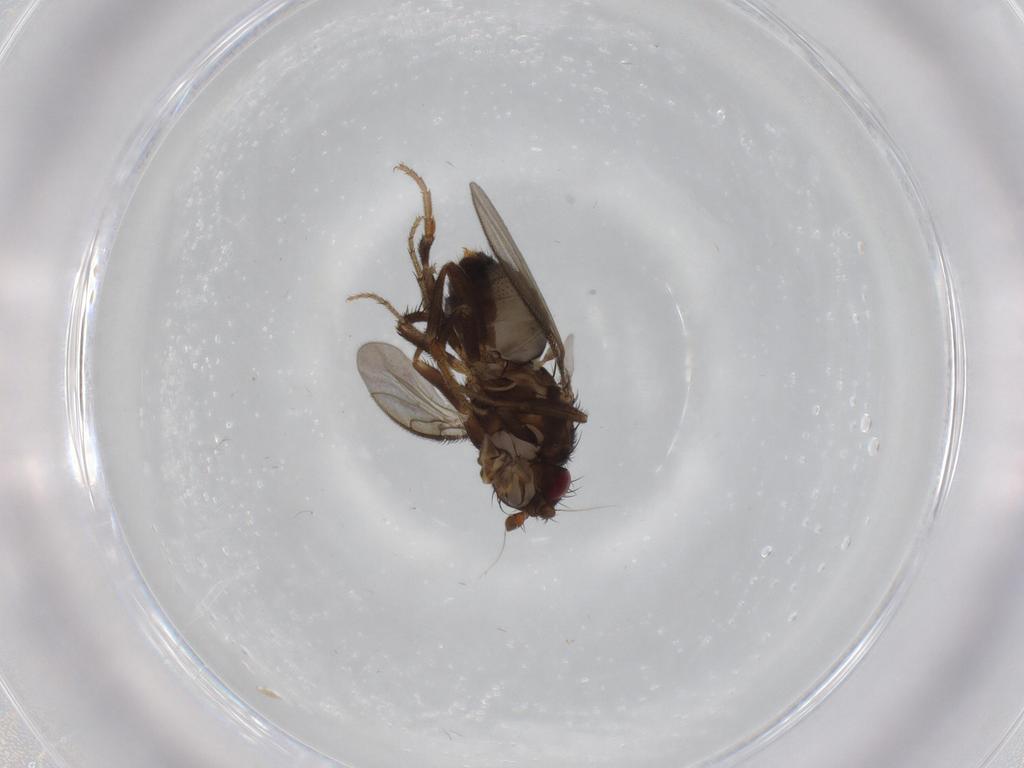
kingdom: Animalia
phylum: Arthropoda
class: Insecta
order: Diptera
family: Sphaeroceridae
